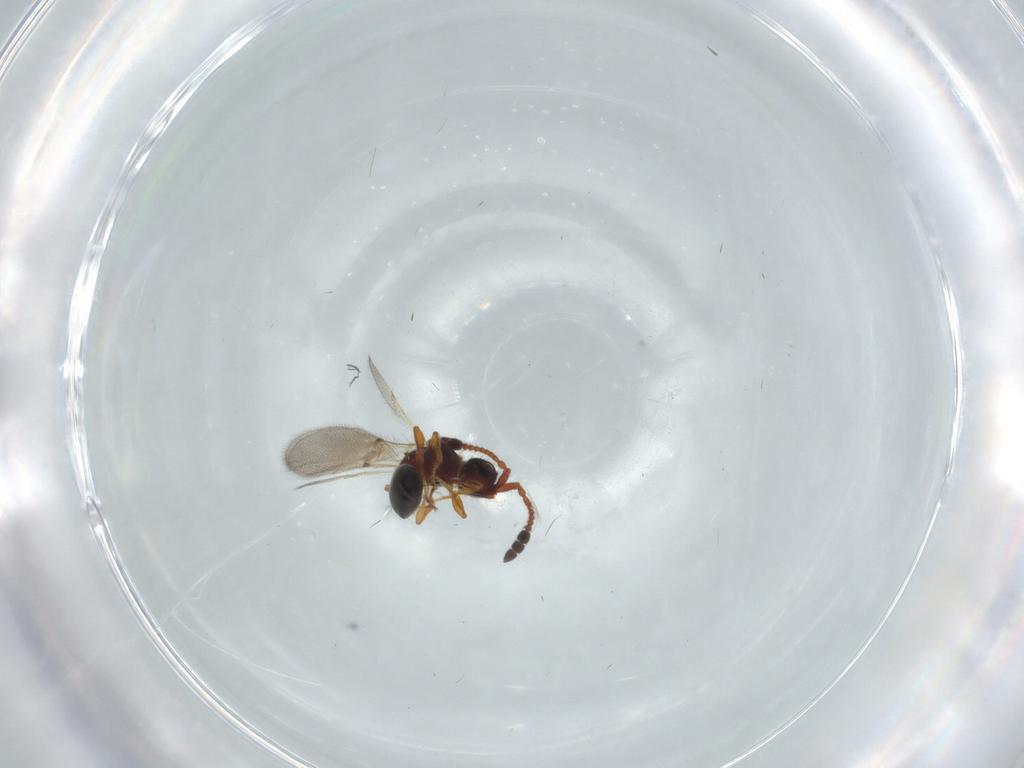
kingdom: Animalia
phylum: Arthropoda
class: Insecta
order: Hymenoptera
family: Diapriidae
